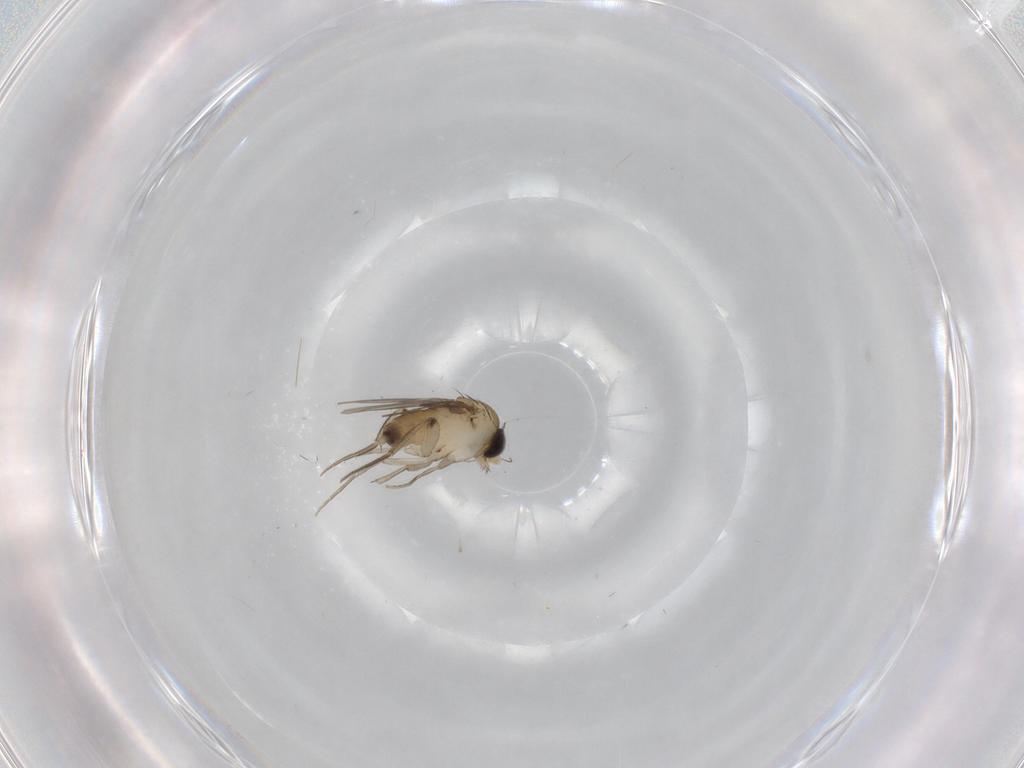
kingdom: Animalia
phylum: Arthropoda
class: Insecta
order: Diptera
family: Phoridae
